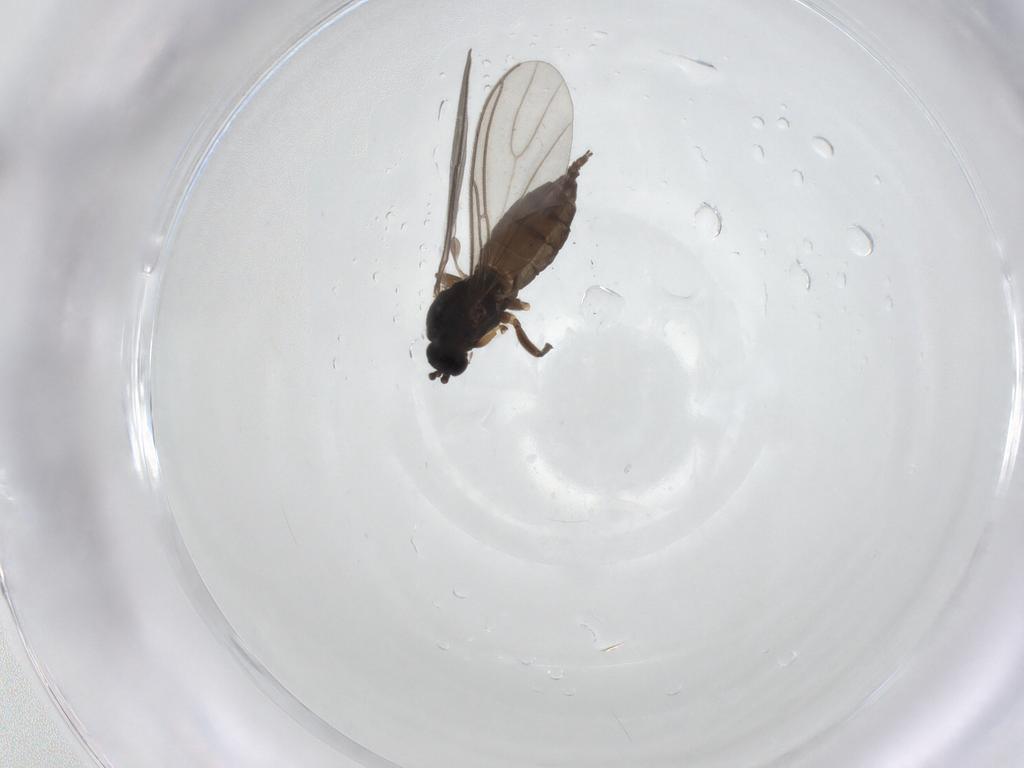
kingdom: Animalia
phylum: Arthropoda
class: Insecta
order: Diptera
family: Sciaridae
